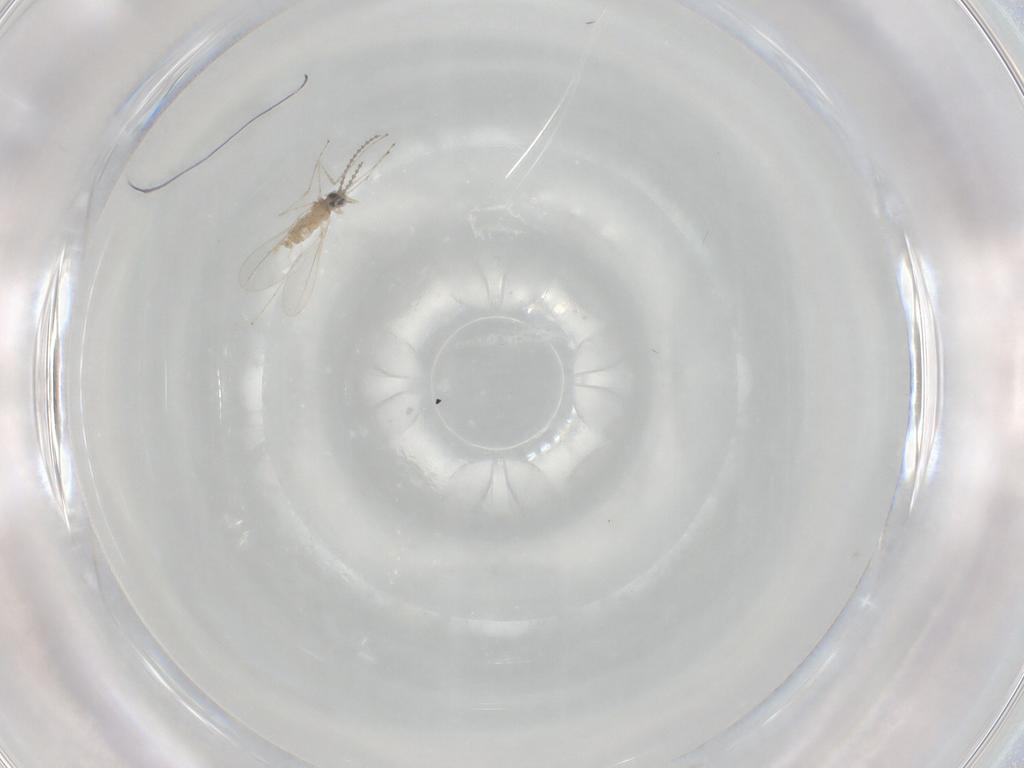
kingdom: Animalia
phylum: Arthropoda
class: Insecta
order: Diptera
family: Cecidomyiidae
